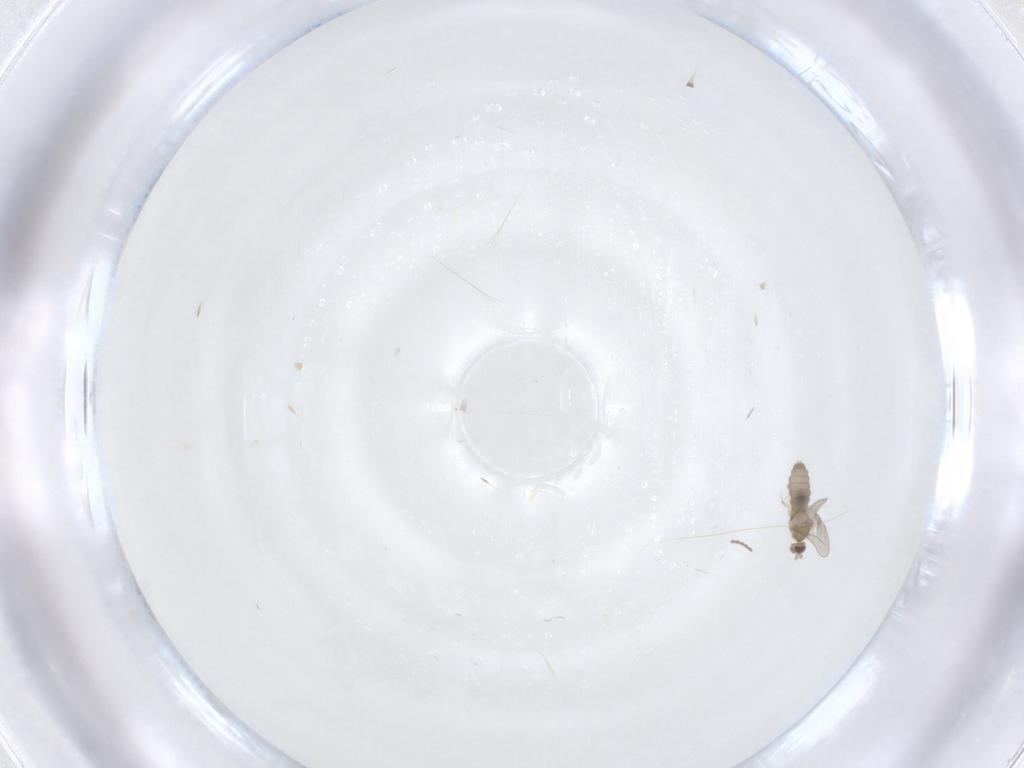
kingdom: Animalia
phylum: Arthropoda
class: Insecta
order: Diptera
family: Cecidomyiidae
